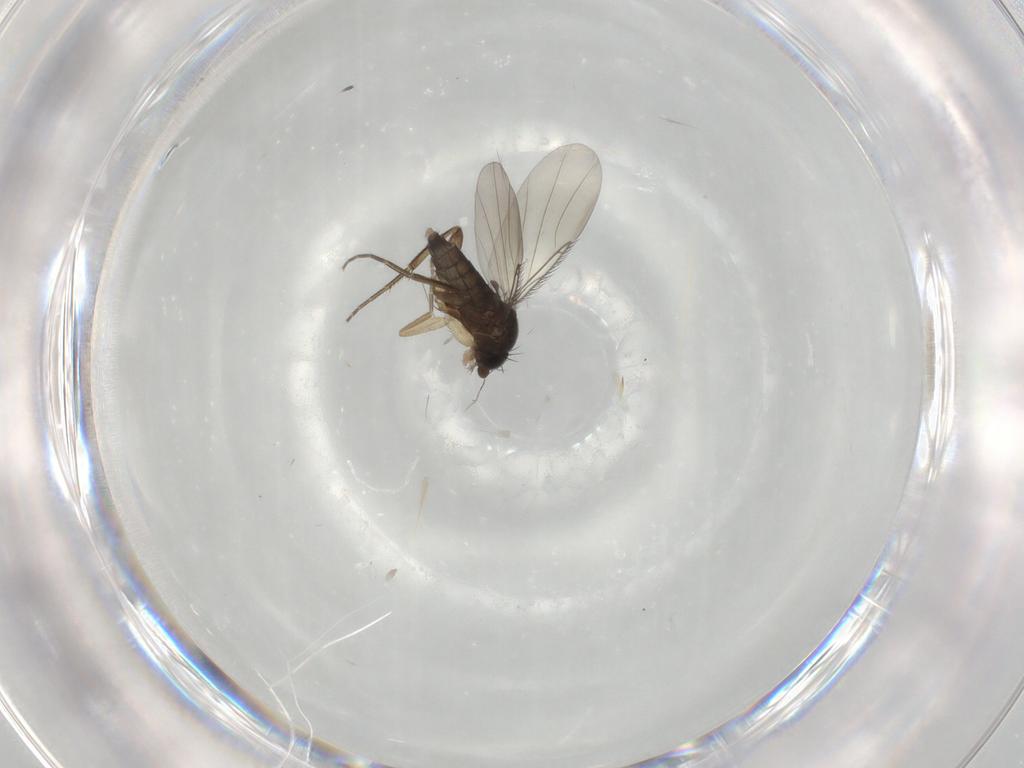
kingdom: Animalia
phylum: Arthropoda
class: Insecta
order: Diptera
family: Phoridae
